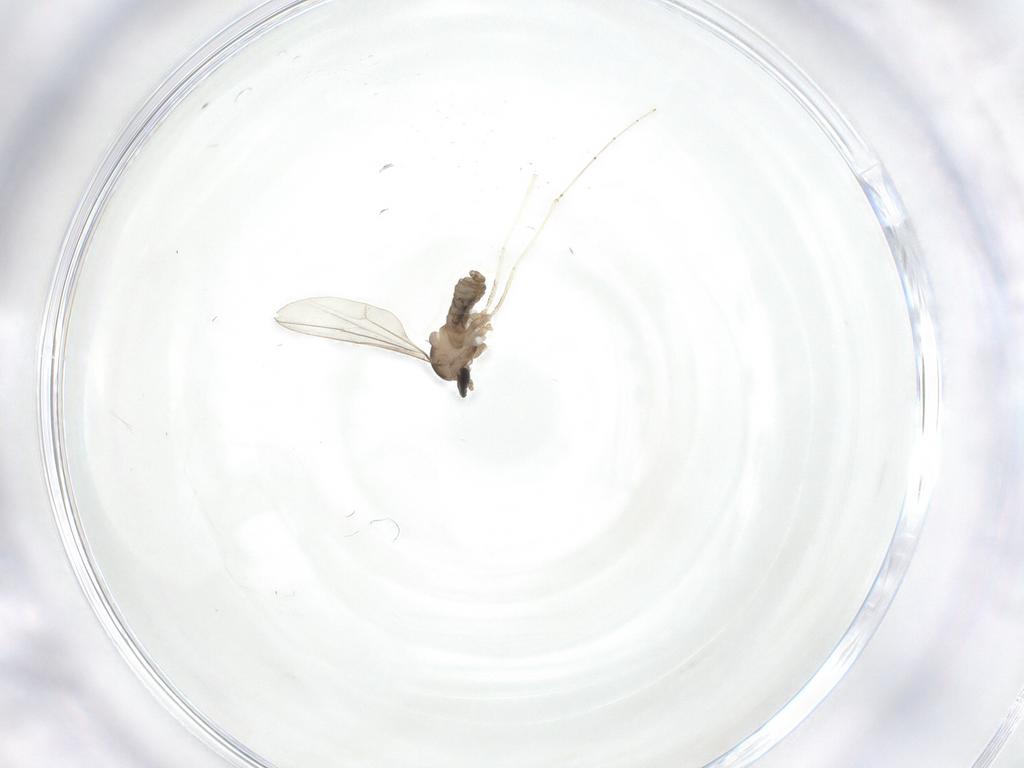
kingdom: Animalia
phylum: Arthropoda
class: Insecta
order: Diptera
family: Cecidomyiidae
